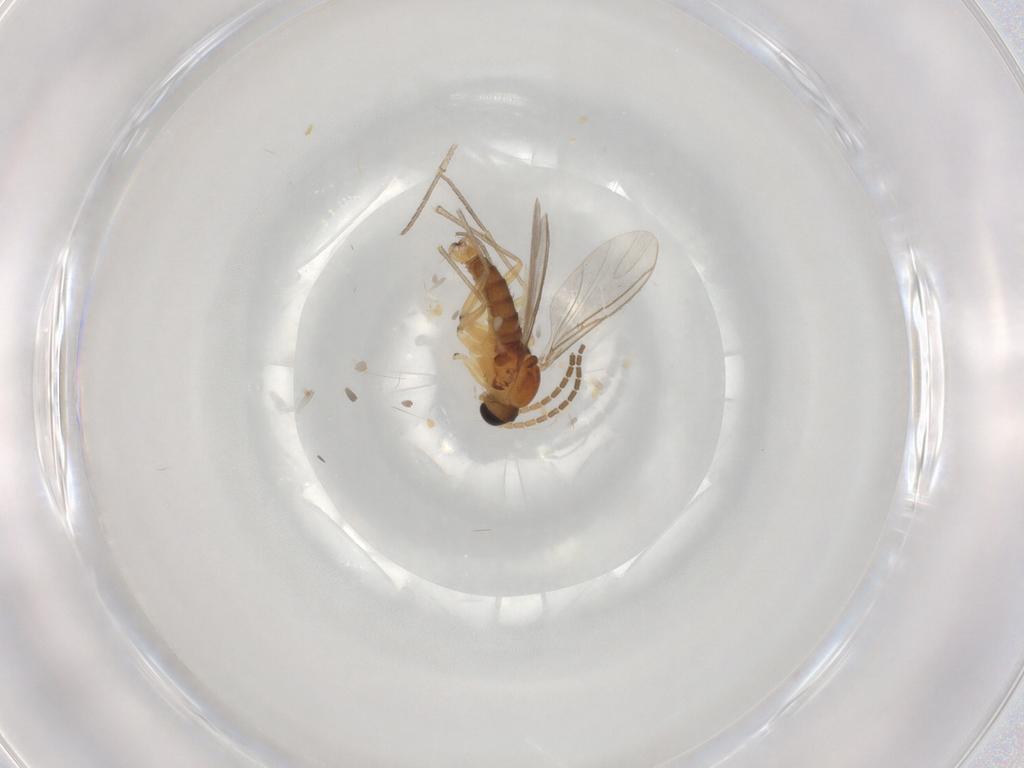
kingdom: Animalia
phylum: Arthropoda
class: Insecta
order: Diptera
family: Sciaridae
